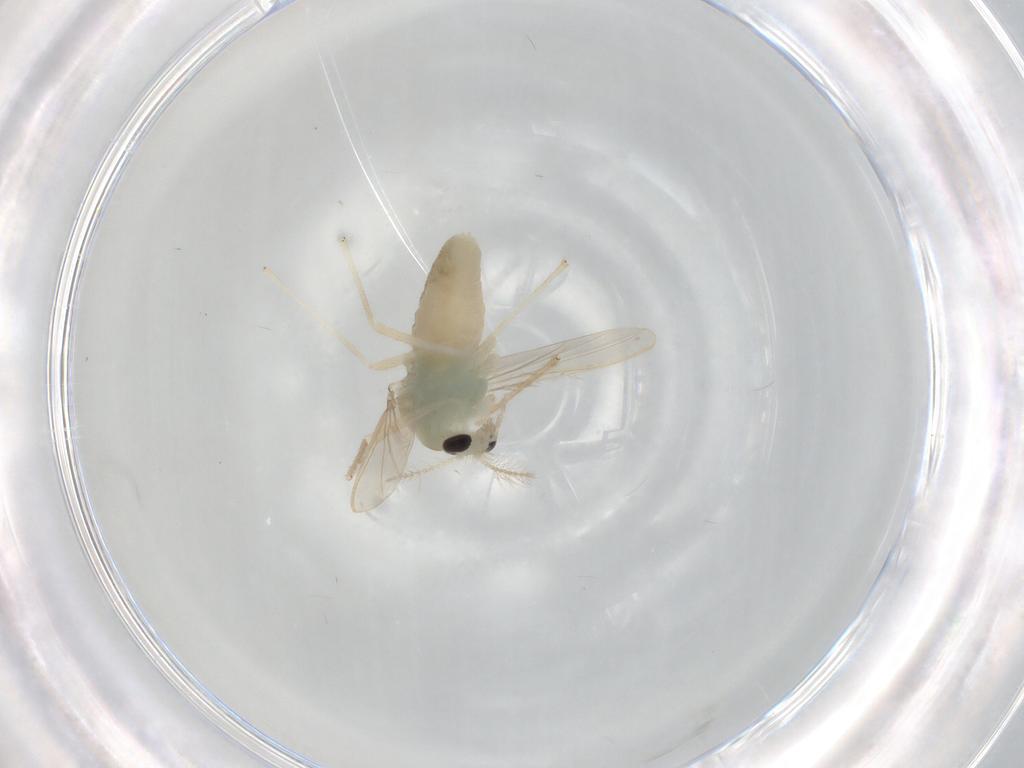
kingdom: Animalia
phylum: Arthropoda
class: Insecta
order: Diptera
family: Chironomidae
